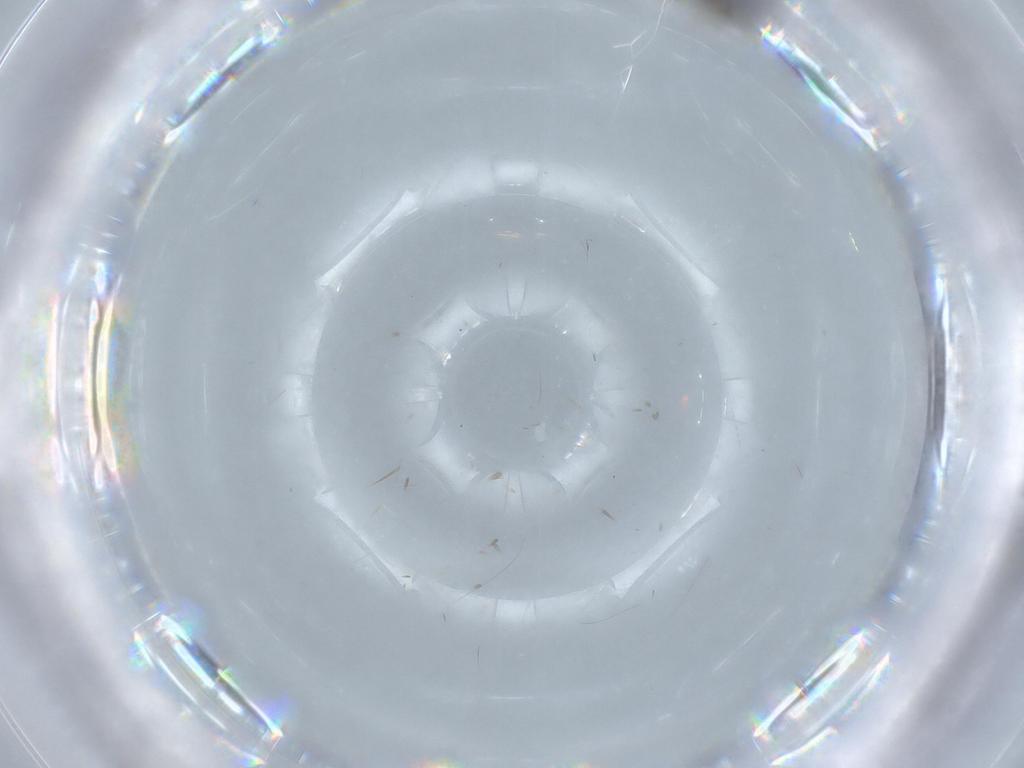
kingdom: Animalia
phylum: Arthropoda
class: Insecta
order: Lepidoptera
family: Nymphalidae
